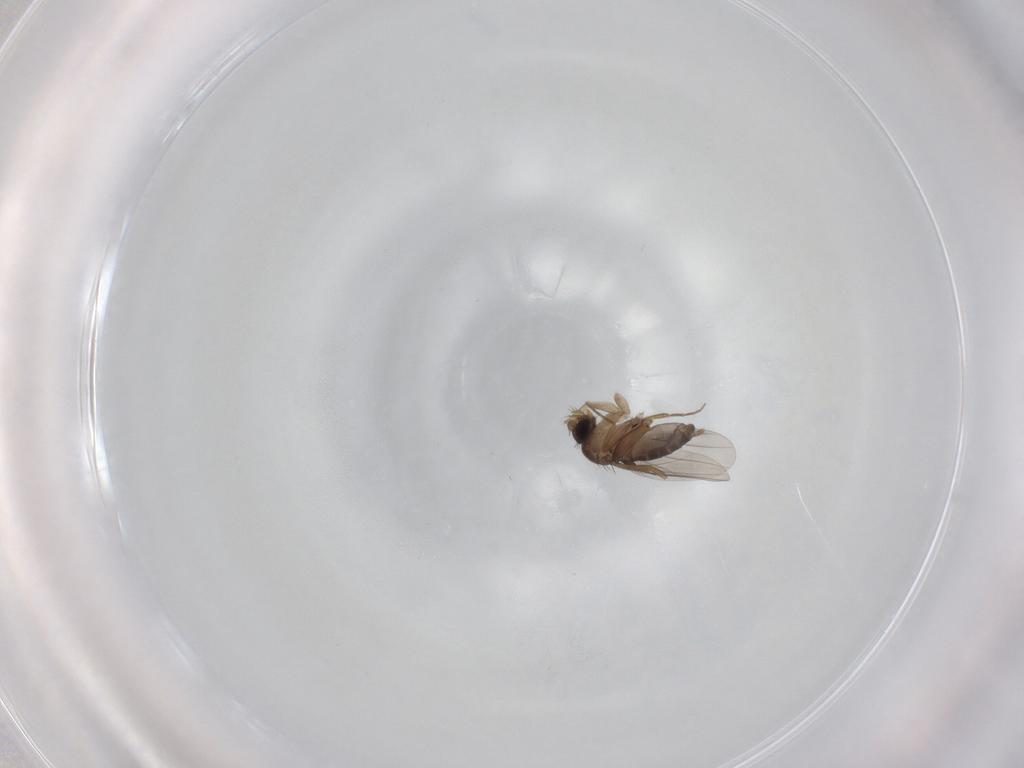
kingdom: Animalia
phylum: Arthropoda
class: Insecta
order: Diptera
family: Phoridae
